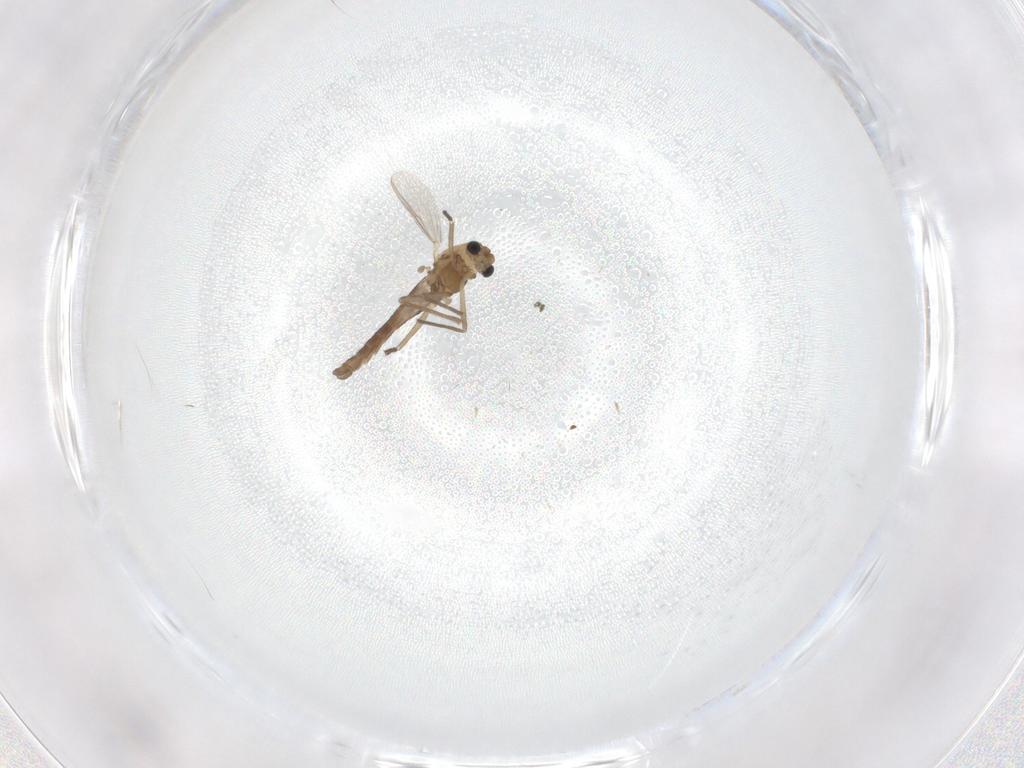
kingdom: Animalia
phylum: Arthropoda
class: Insecta
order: Diptera
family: Chironomidae
